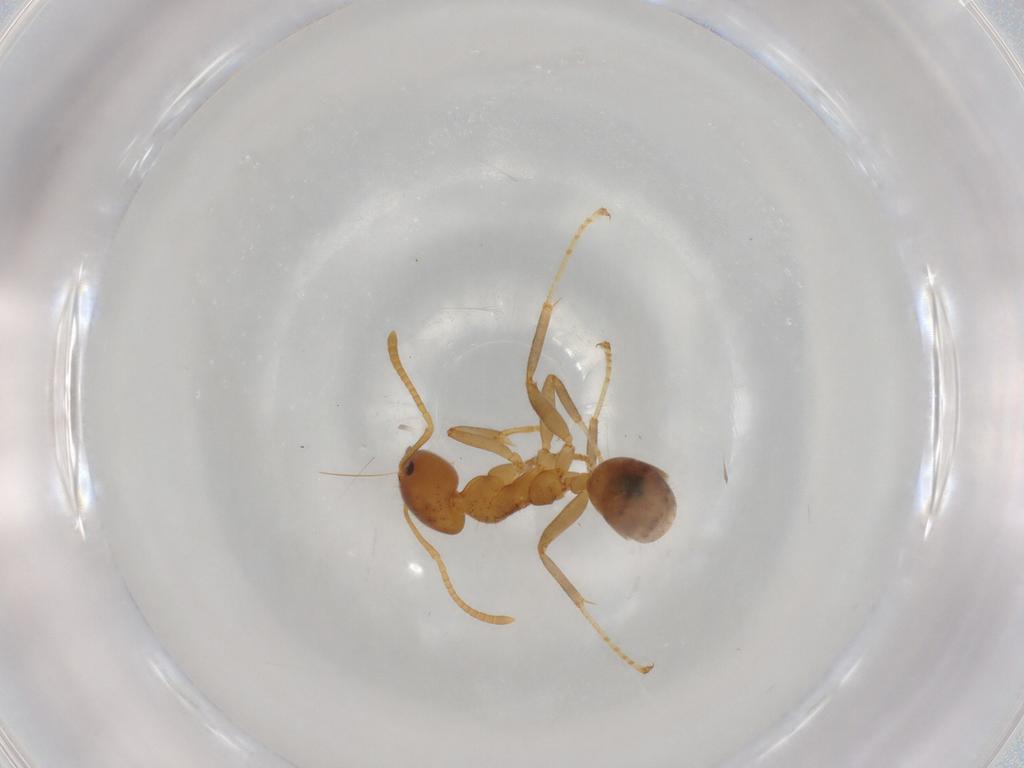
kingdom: Animalia
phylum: Arthropoda
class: Insecta
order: Hymenoptera
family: Formicidae
